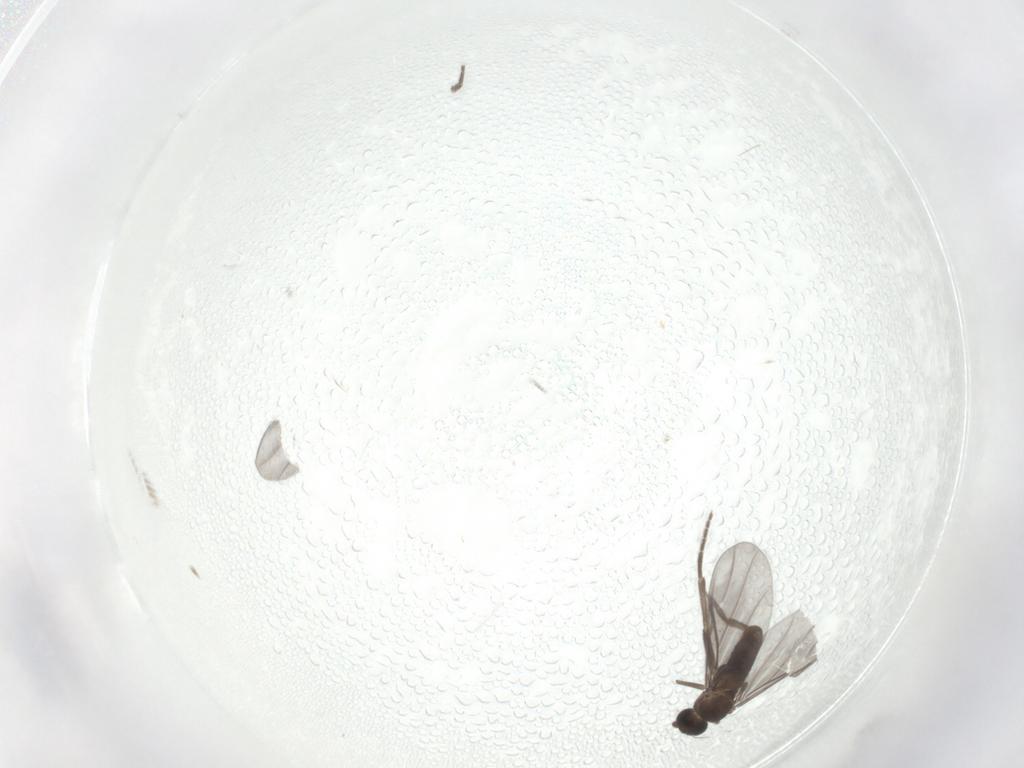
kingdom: Animalia
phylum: Arthropoda
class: Insecta
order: Diptera
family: Phoridae
